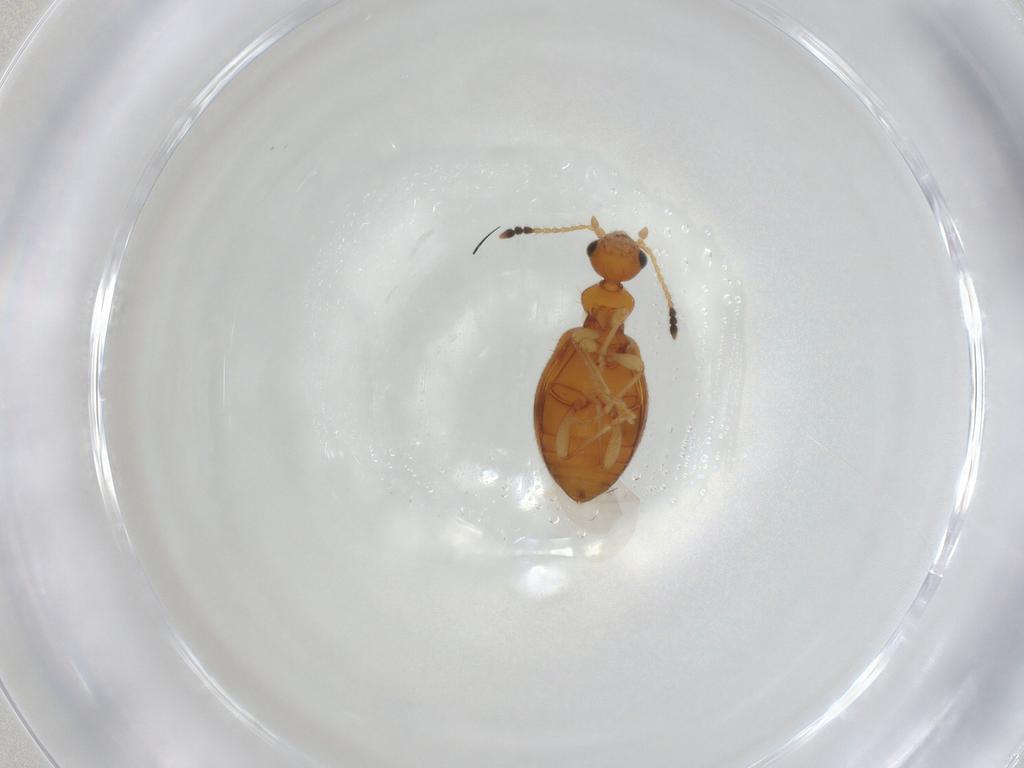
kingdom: Animalia
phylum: Arthropoda
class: Insecta
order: Coleoptera
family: Anthicidae
